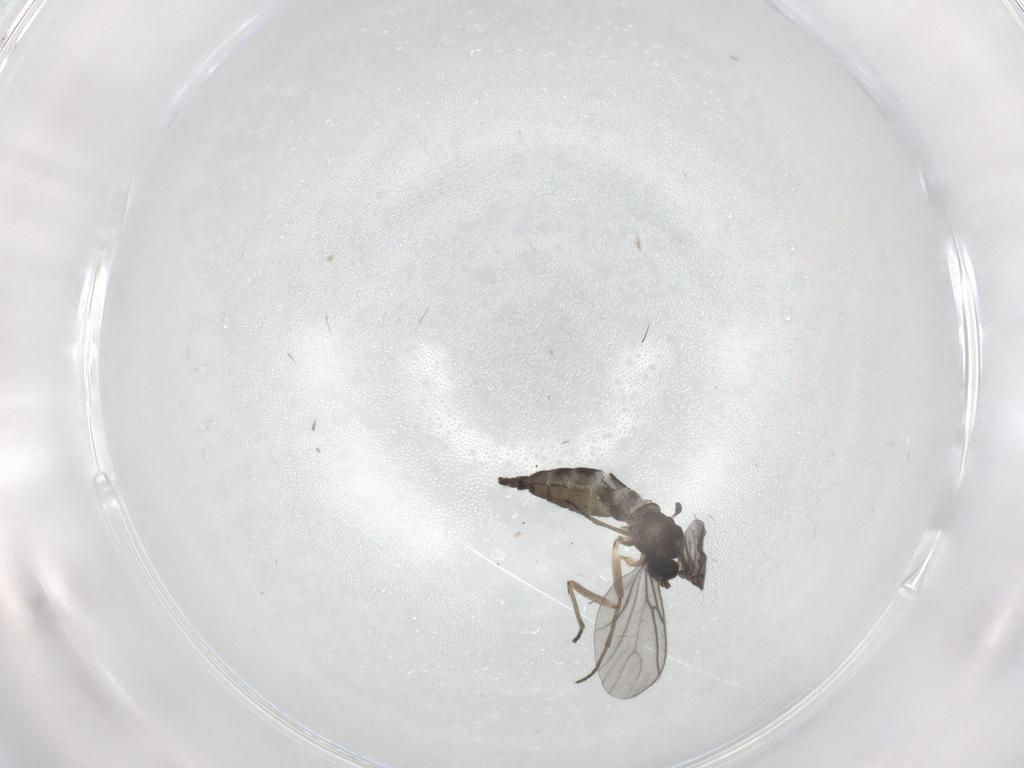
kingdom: Animalia
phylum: Arthropoda
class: Insecta
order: Diptera
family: Sciaridae
